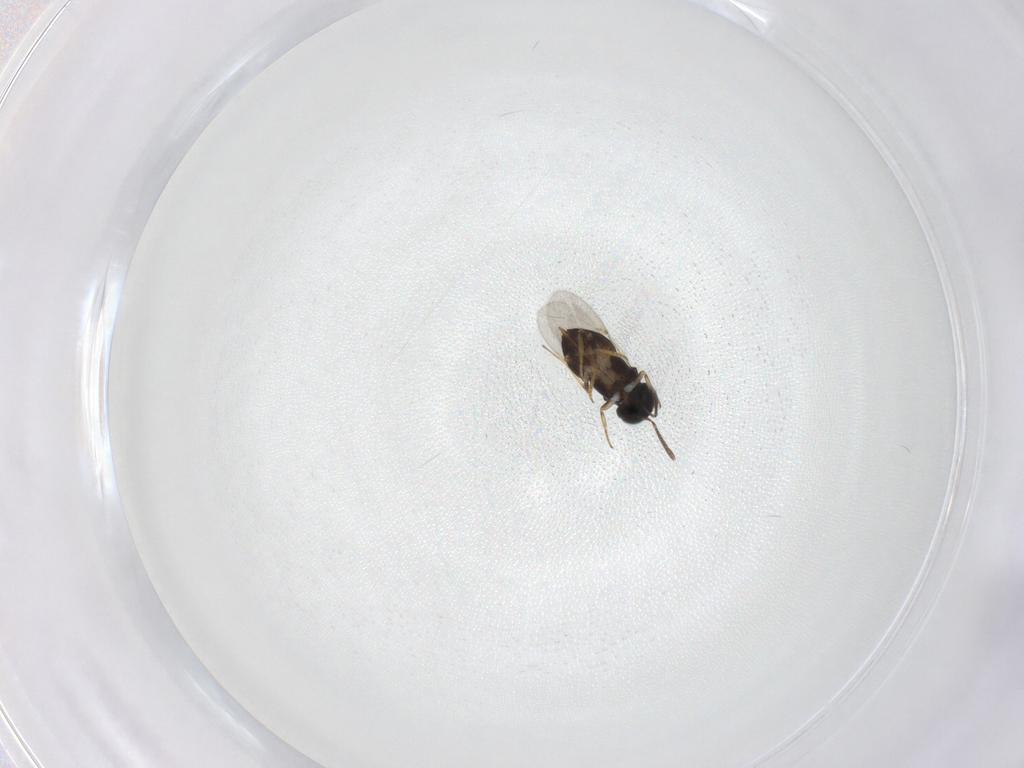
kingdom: Animalia
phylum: Arthropoda
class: Insecta
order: Hymenoptera
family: Encyrtidae
